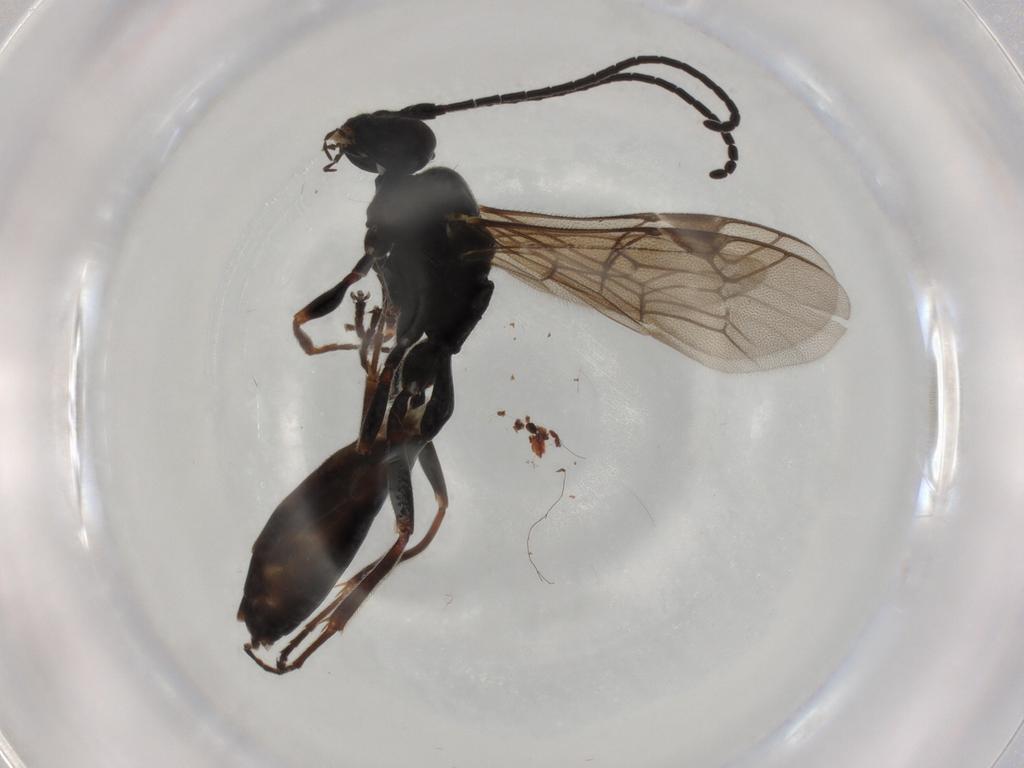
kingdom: Animalia
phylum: Arthropoda
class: Insecta
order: Hymenoptera
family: Ichneumonidae
